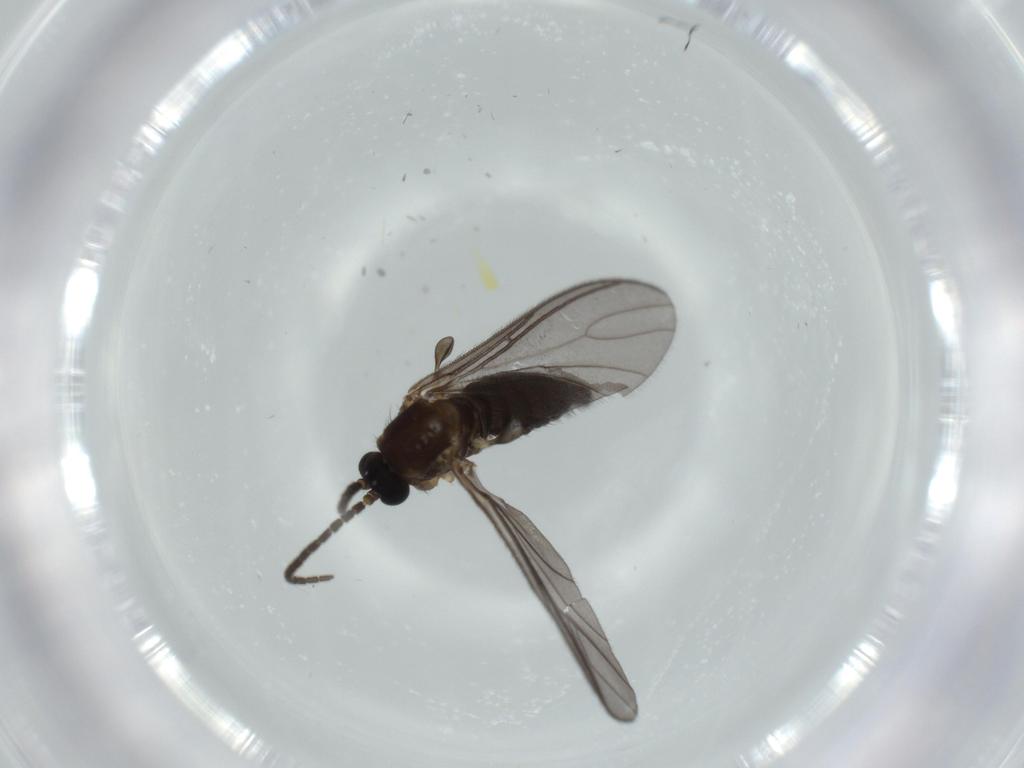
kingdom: Animalia
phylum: Arthropoda
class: Insecta
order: Diptera
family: Sciaridae
